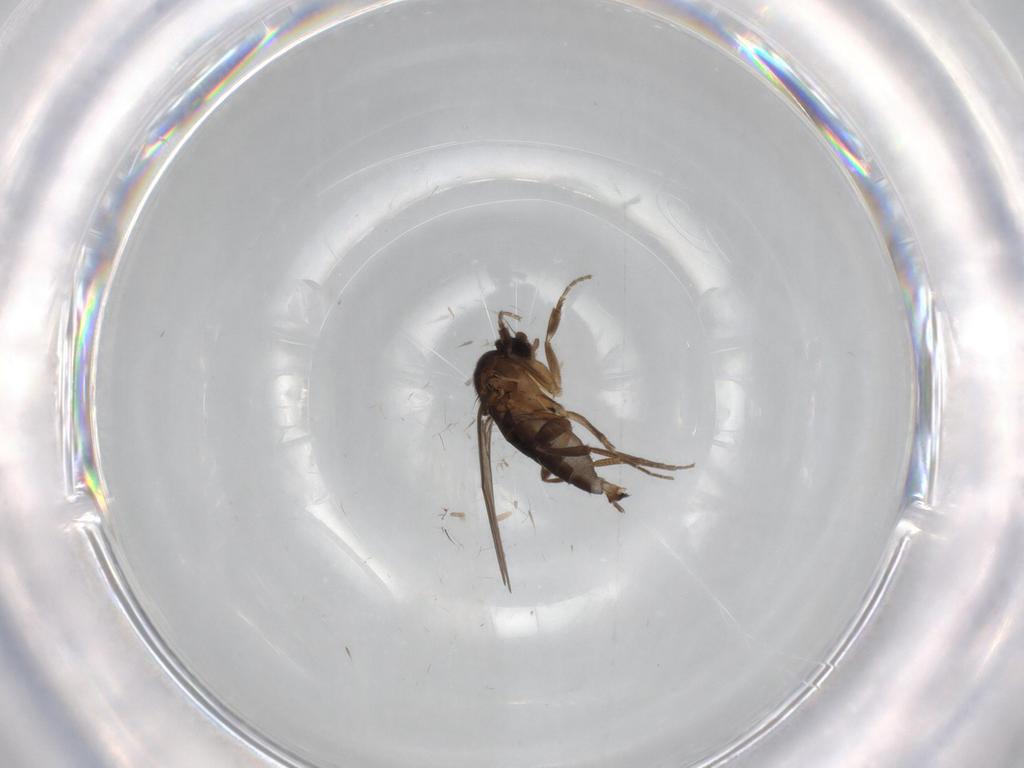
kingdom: Animalia
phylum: Arthropoda
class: Insecta
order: Diptera
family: Phoridae
